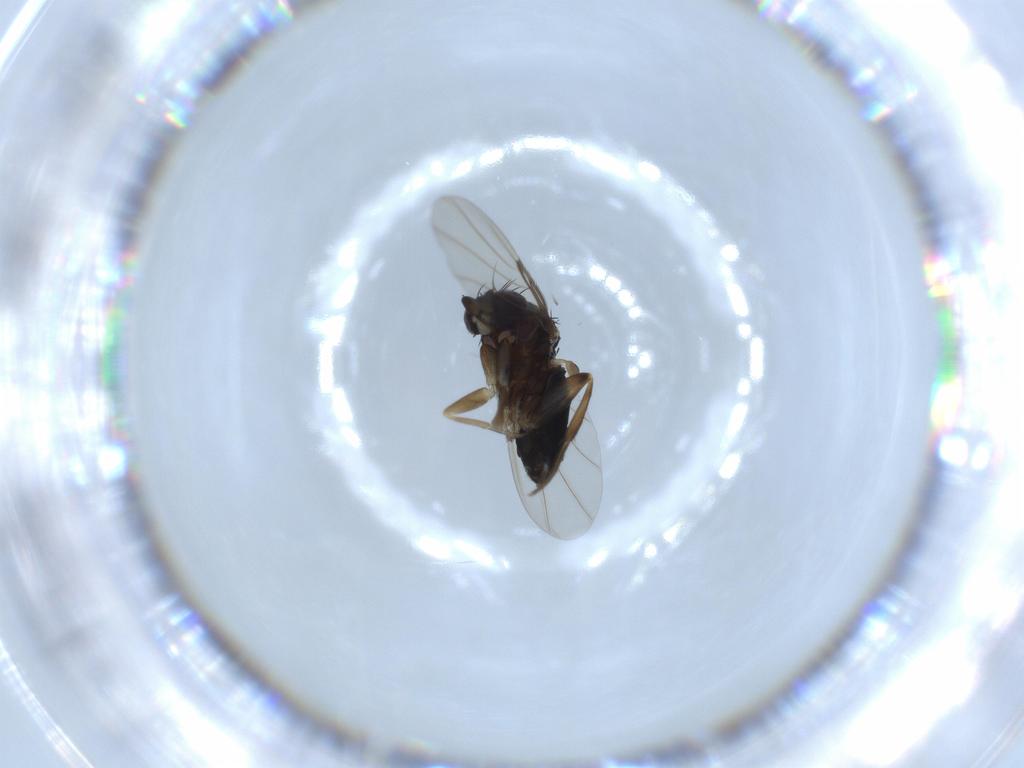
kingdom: Animalia
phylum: Arthropoda
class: Insecta
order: Diptera
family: Phoridae
